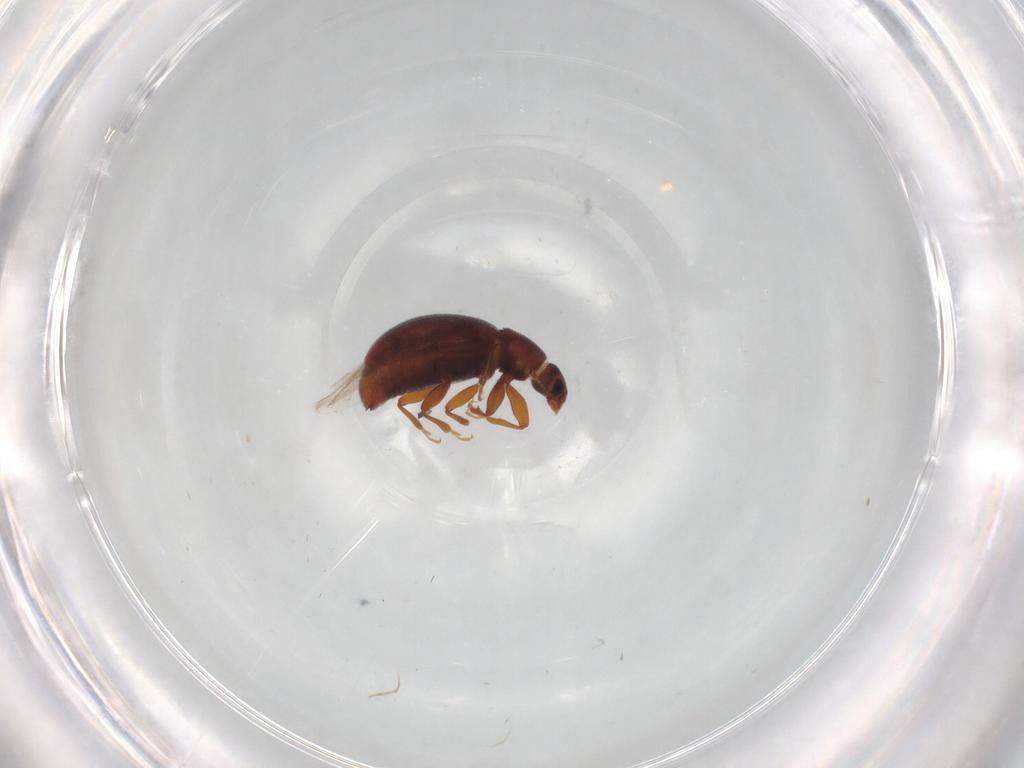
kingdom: Animalia
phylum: Arthropoda
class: Insecta
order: Coleoptera
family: Latridiidae
